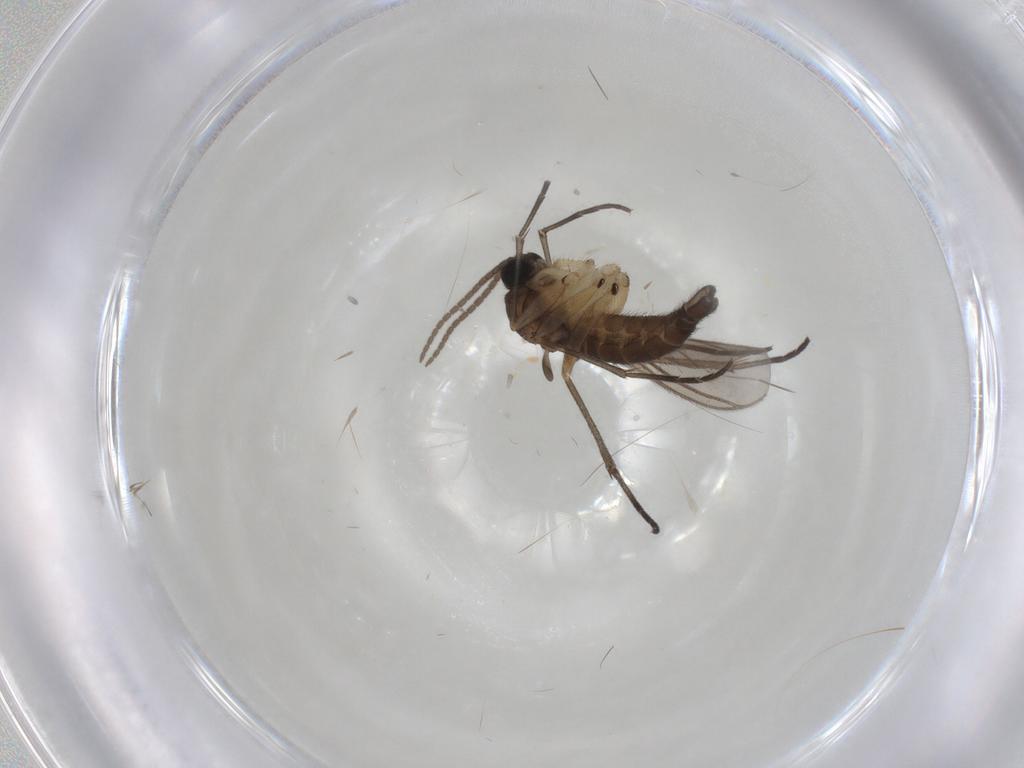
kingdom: Animalia
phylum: Arthropoda
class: Insecta
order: Diptera
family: Sciaridae
